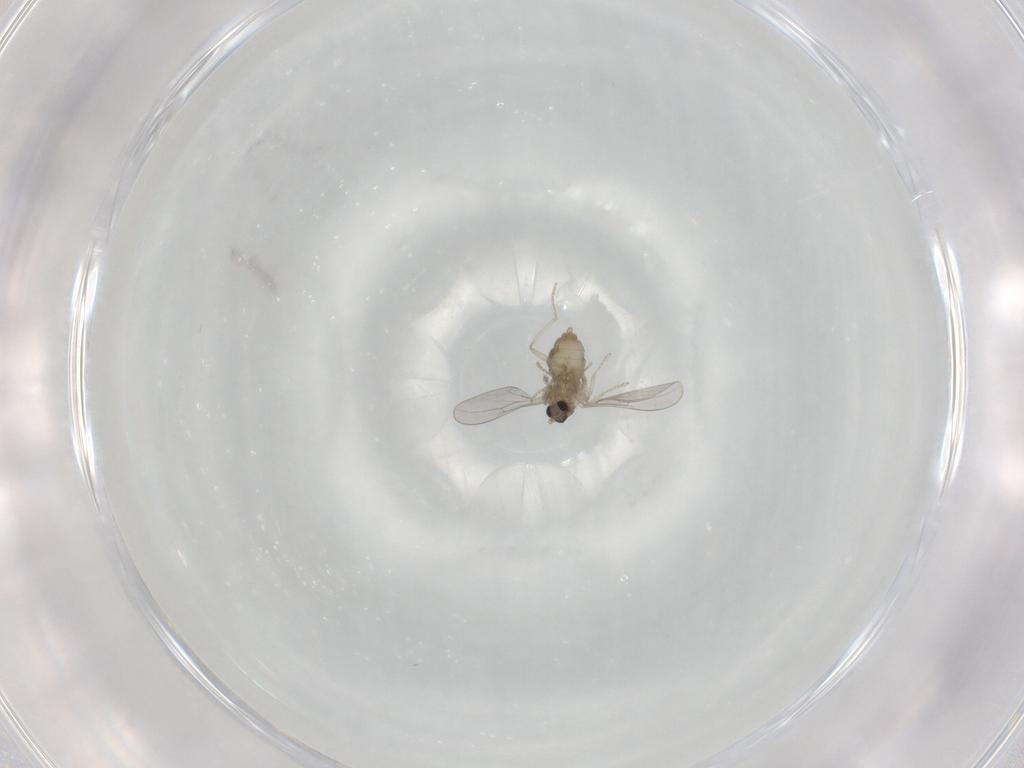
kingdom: Animalia
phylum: Arthropoda
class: Insecta
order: Diptera
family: Cecidomyiidae
